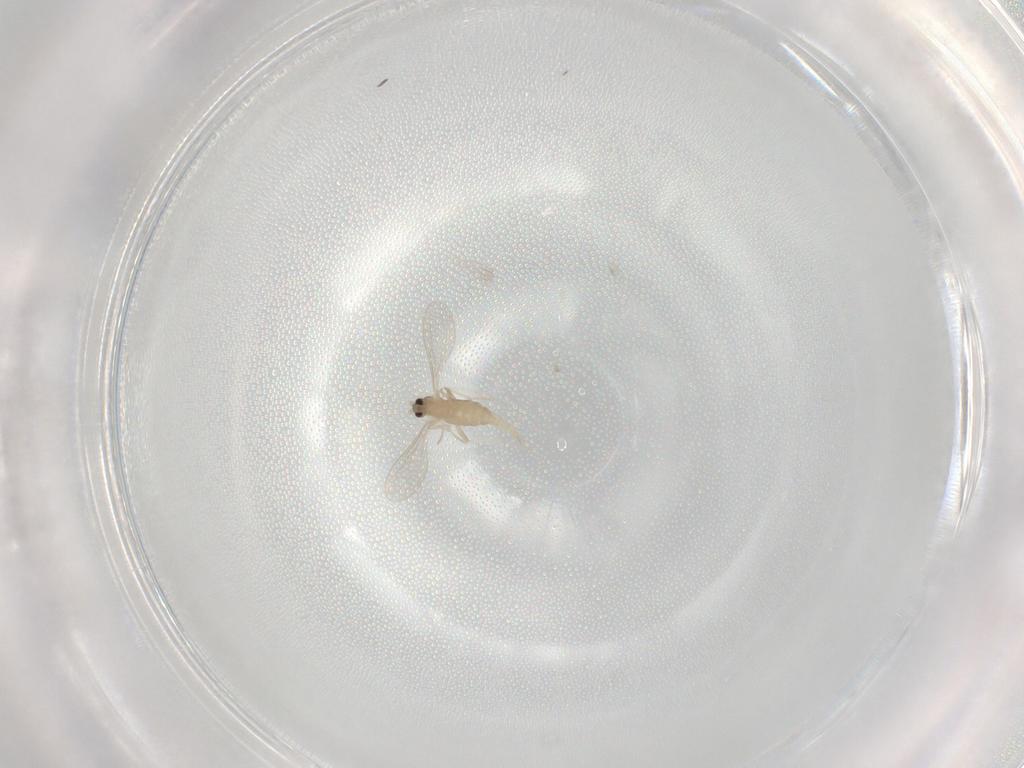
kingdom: Animalia
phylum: Arthropoda
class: Insecta
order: Diptera
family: Cecidomyiidae
